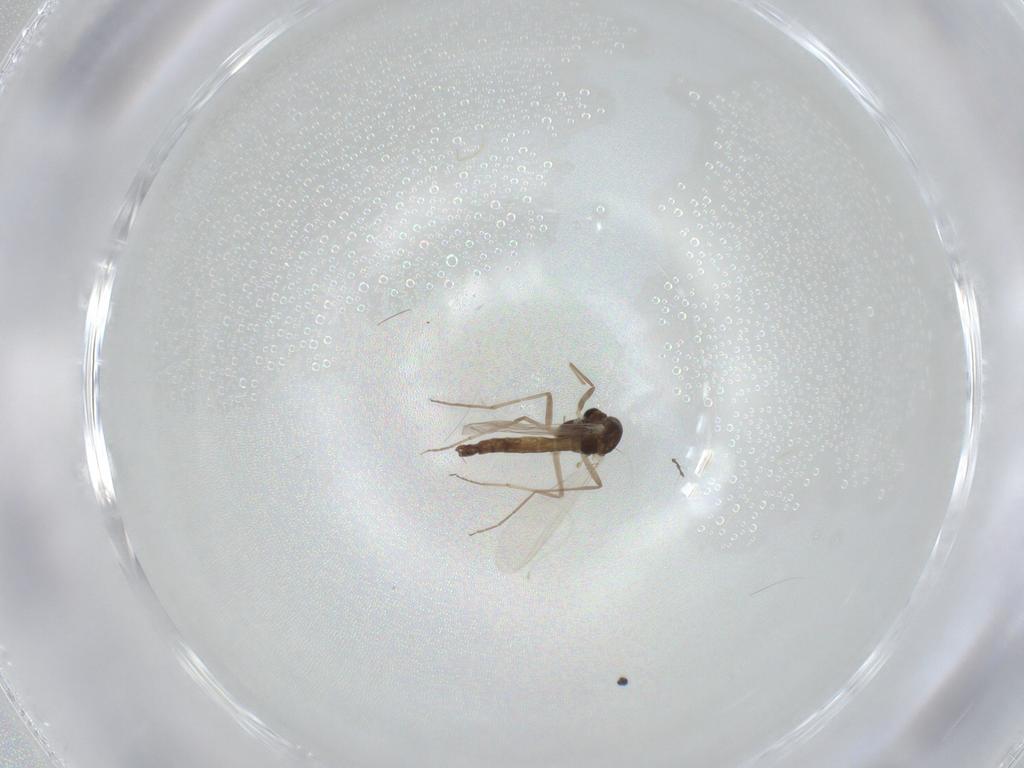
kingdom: Animalia
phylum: Arthropoda
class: Insecta
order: Diptera
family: Chironomidae
